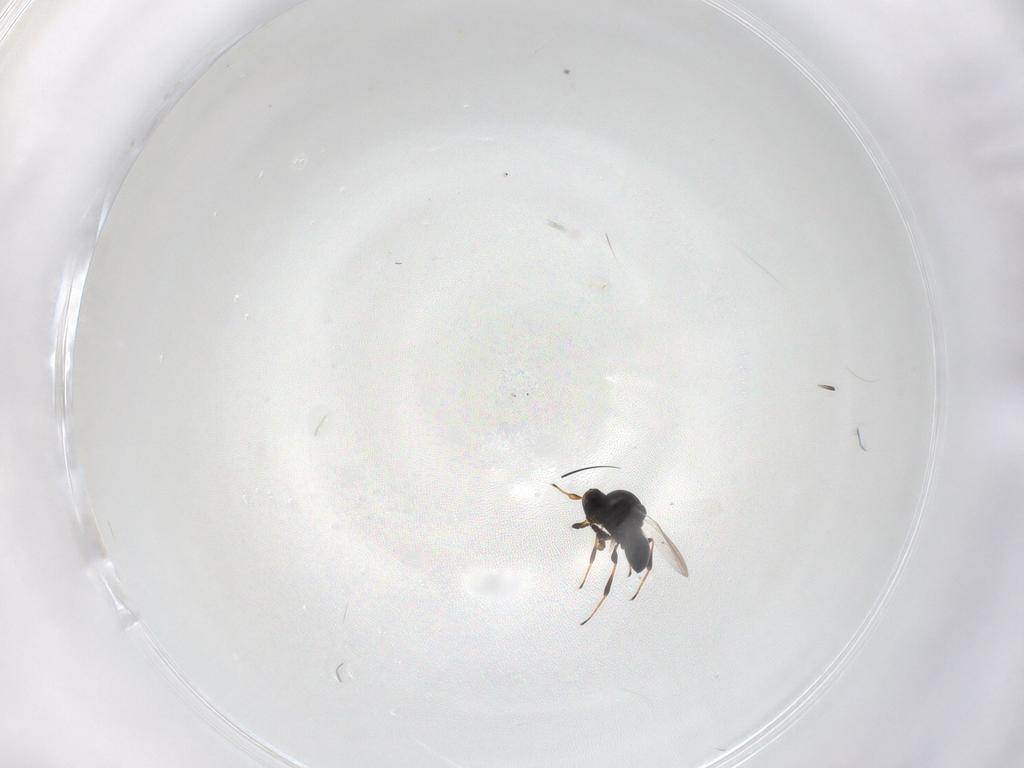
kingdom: Animalia
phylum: Arthropoda
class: Insecta
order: Hymenoptera
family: Platygastridae
